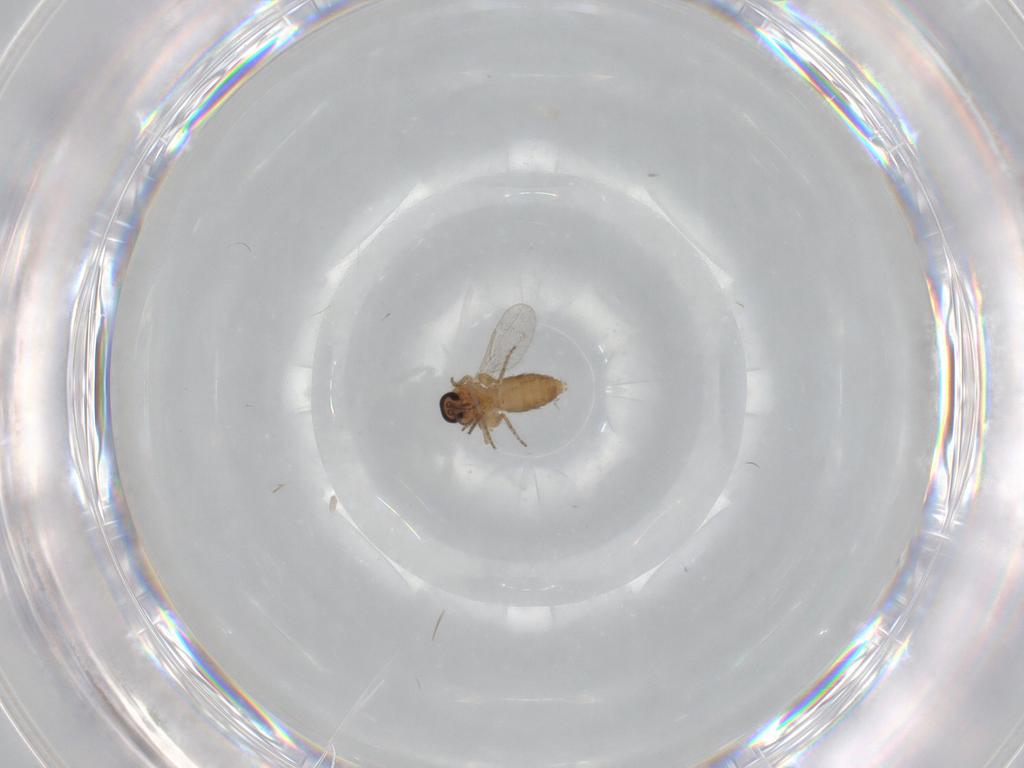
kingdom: Animalia
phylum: Arthropoda
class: Insecta
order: Diptera
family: Ceratopogonidae
